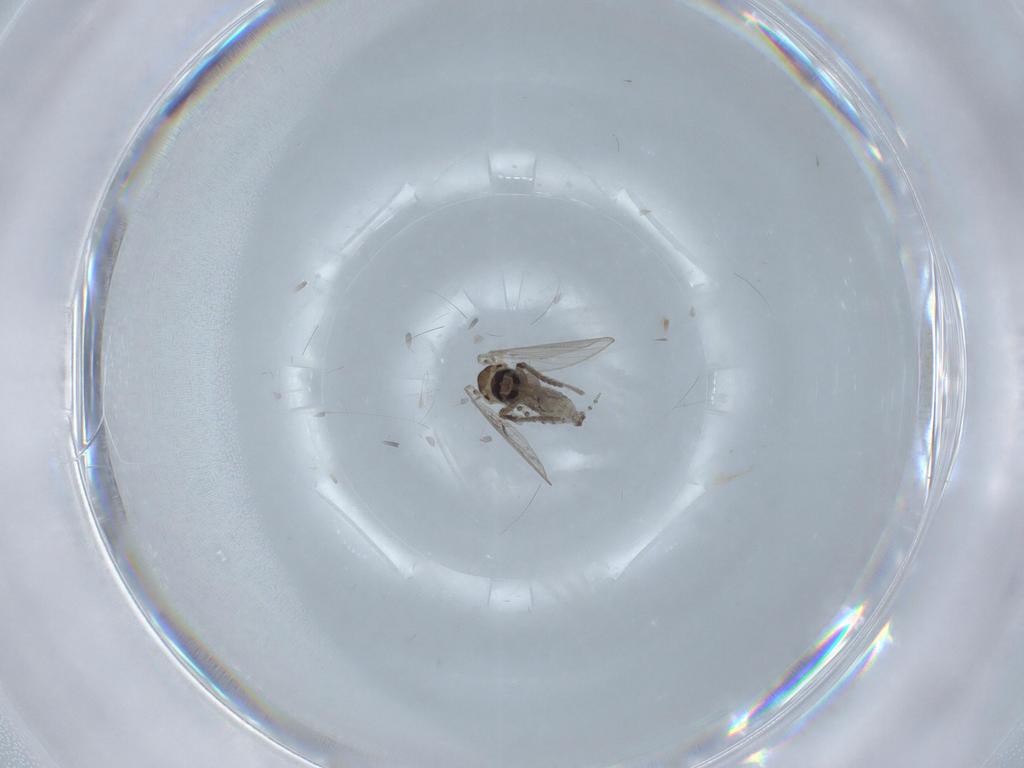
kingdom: Animalia
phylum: Arthropoda
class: Insecta
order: Diptera
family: Psychodidae
